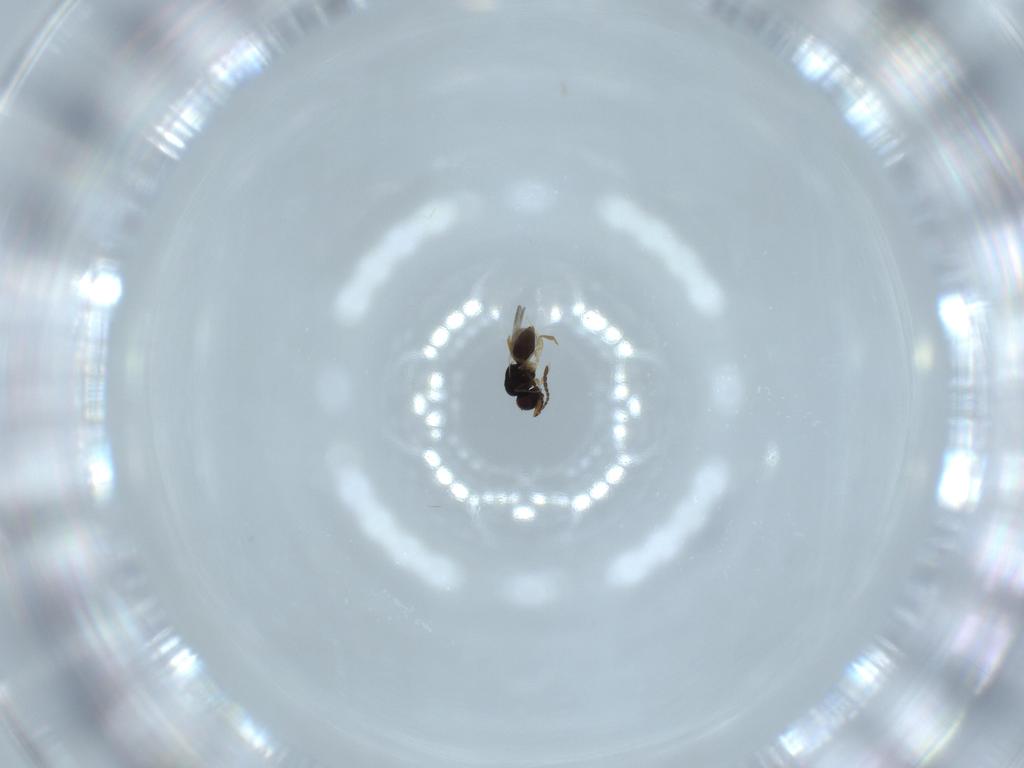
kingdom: Animalia
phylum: Arthropoda
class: Insecta
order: Hymenoptera
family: Eurytomidae
